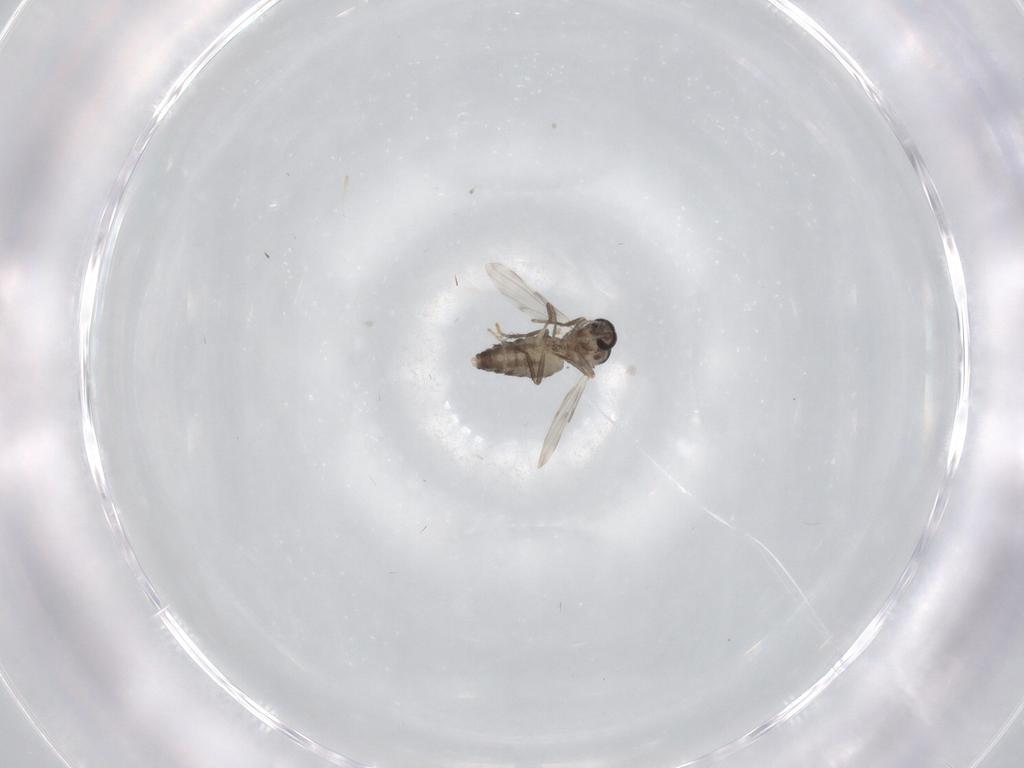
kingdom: Animalia
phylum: Arthropoda
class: Insecta
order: Diptera
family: Ceratopogonidae
